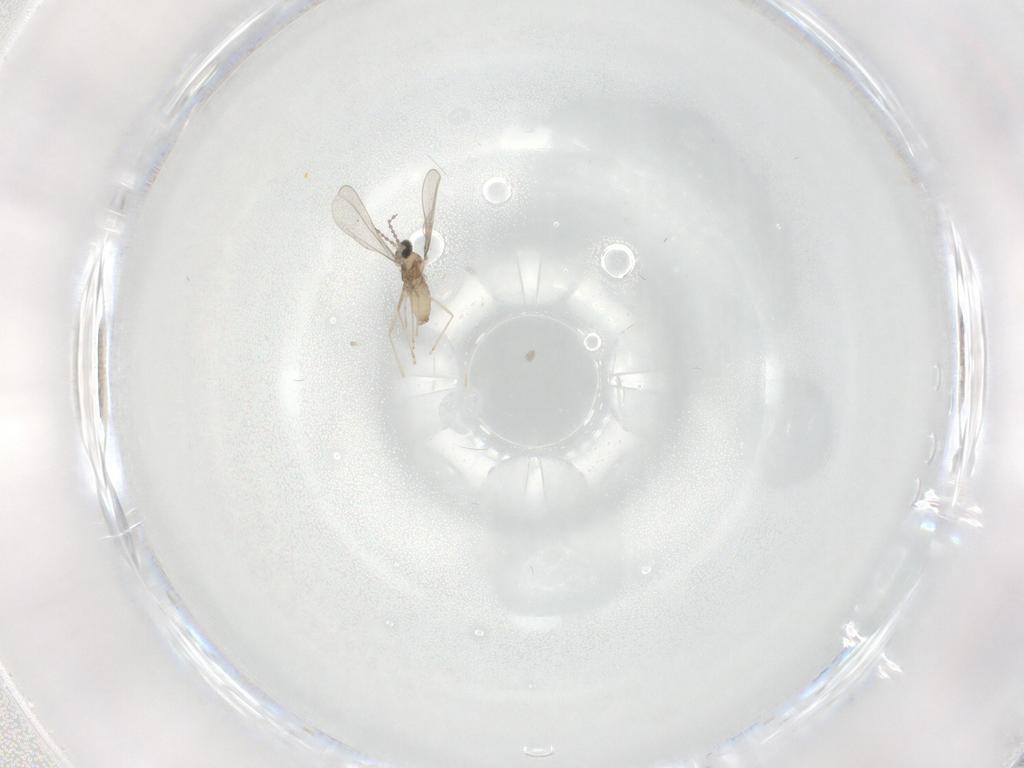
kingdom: Animalia
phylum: Arthropoda
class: Insecta
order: Diptera
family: Cecidomyiidae
